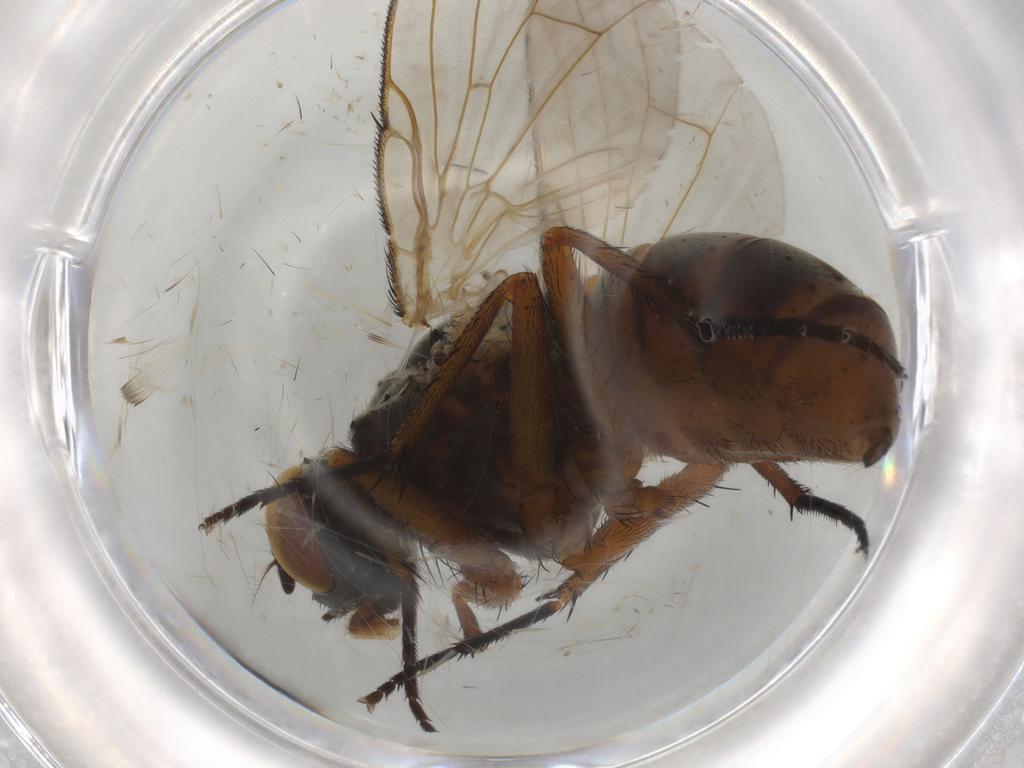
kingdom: Animalia
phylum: Arthropoda
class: Insecta
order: Diptera
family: Muscidae
